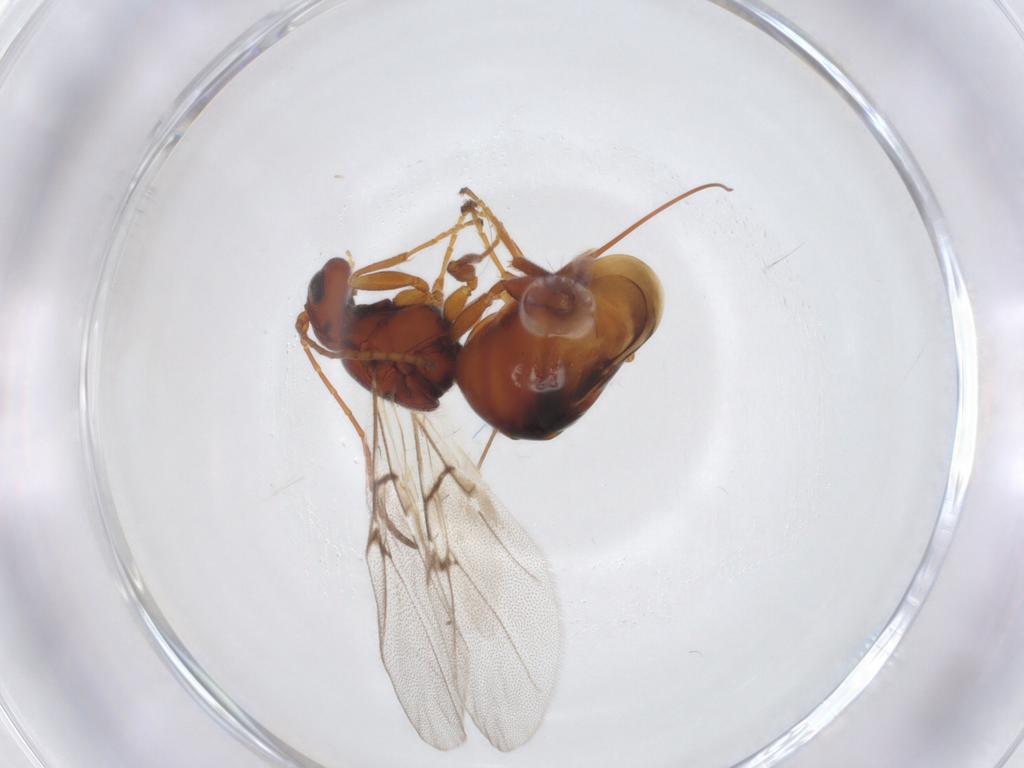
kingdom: Animalia
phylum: Arthropoda
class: Insecta
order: Hymenoptera
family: Cynipidae
